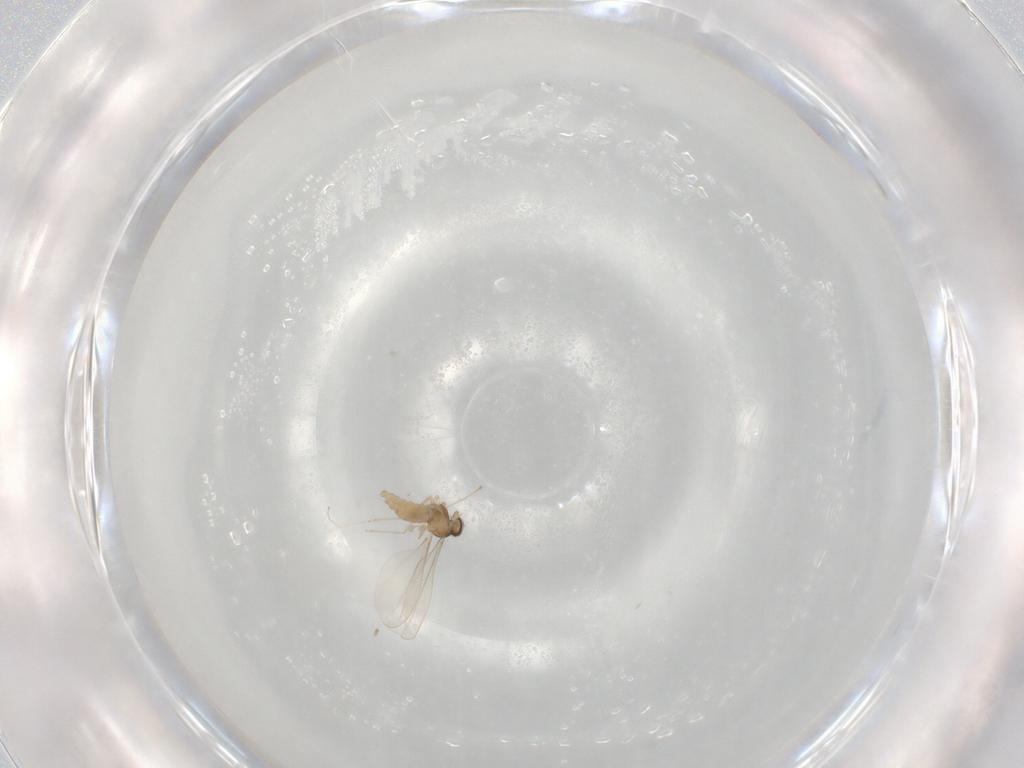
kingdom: Animalia
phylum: Arthropoda
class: Insecta
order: Diptera
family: Cecidomyiidae
